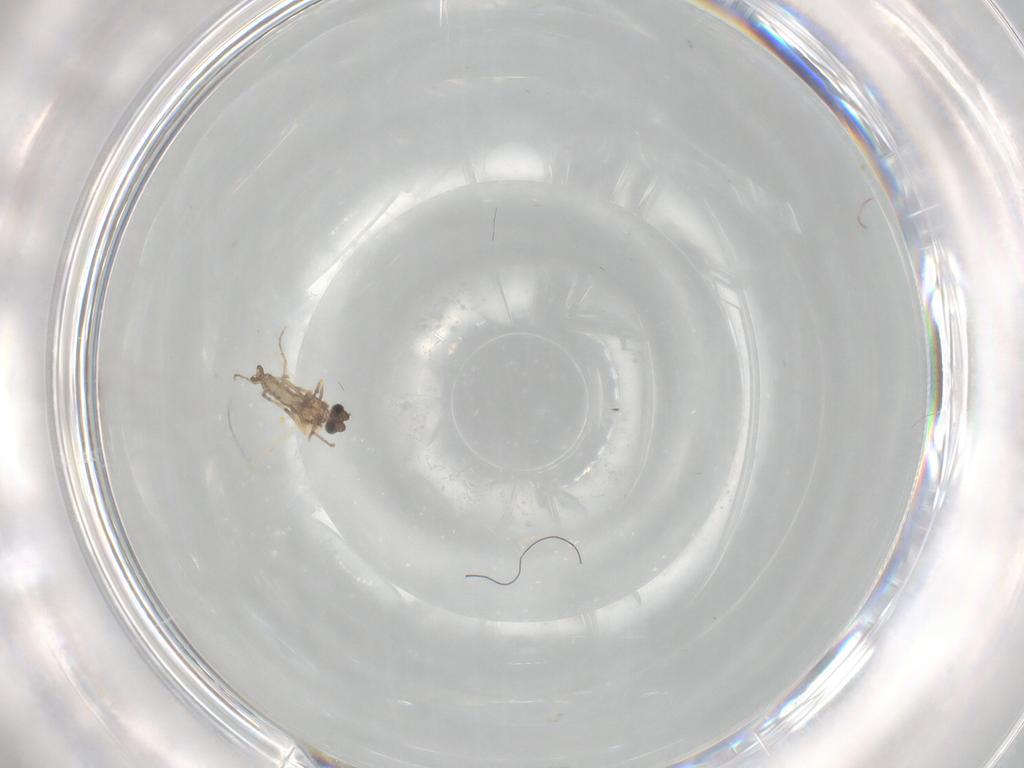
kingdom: Animalia
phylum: Arthropoda
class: Insecta
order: Diptera
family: Ceratopogonidae
